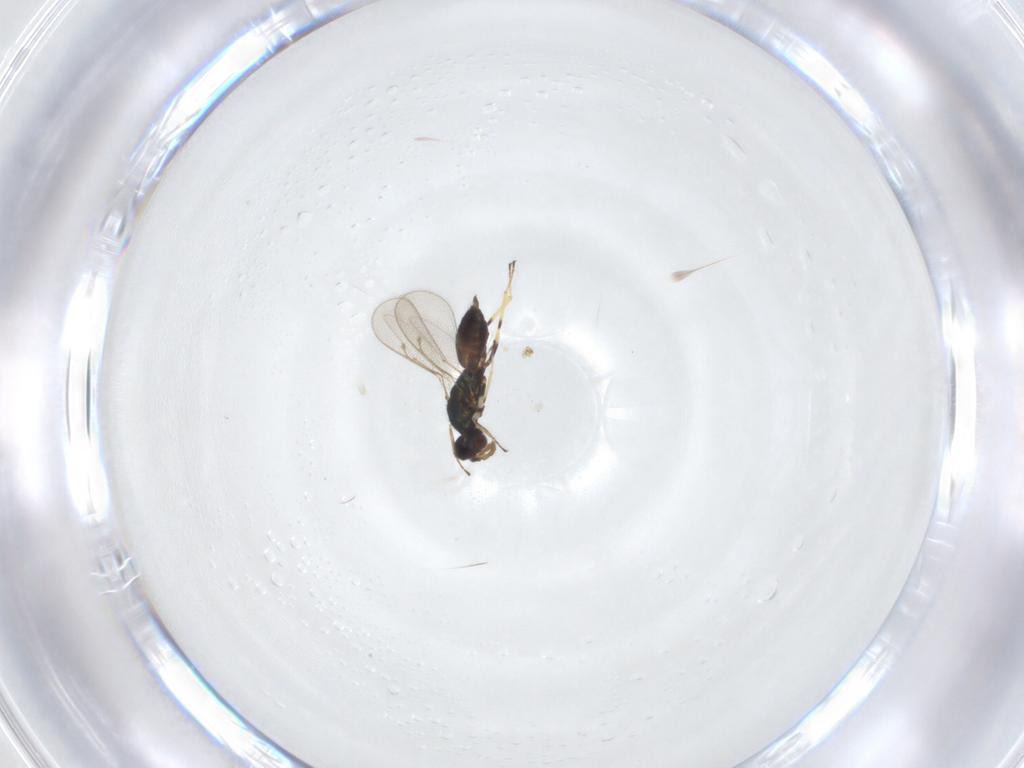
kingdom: Animalia
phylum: Arthropoda
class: Insecta
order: Hymenoptera
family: Eulophidae
